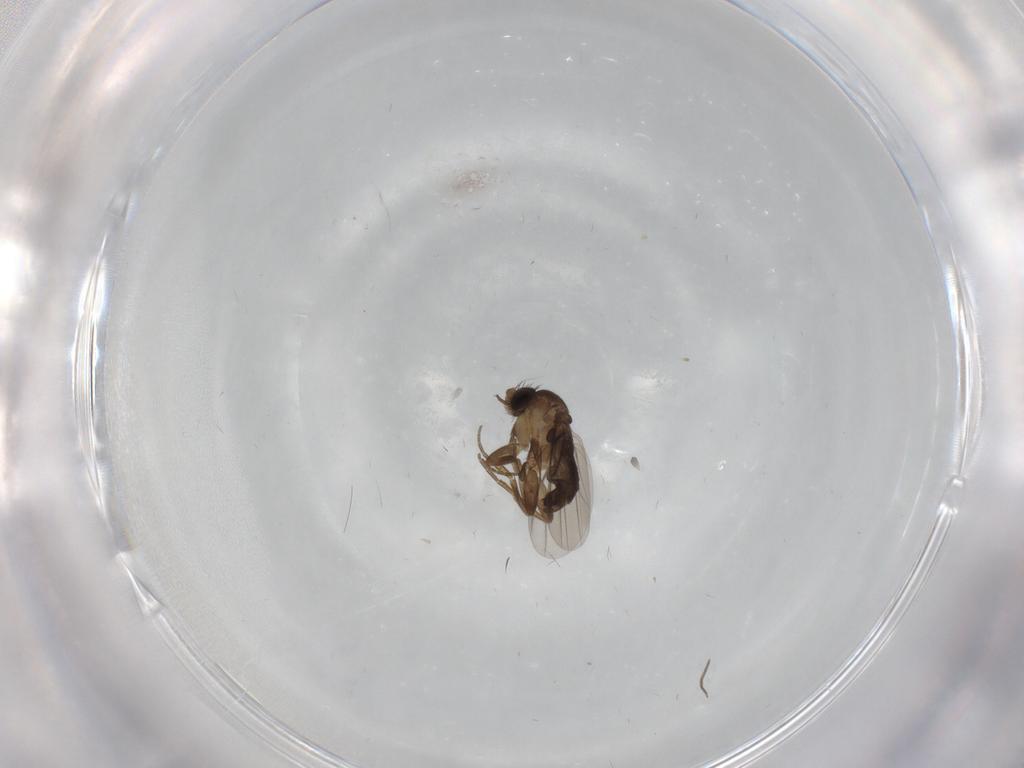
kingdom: Animalia
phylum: Arthropoda
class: Insecta
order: Diptera
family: Phoridae
